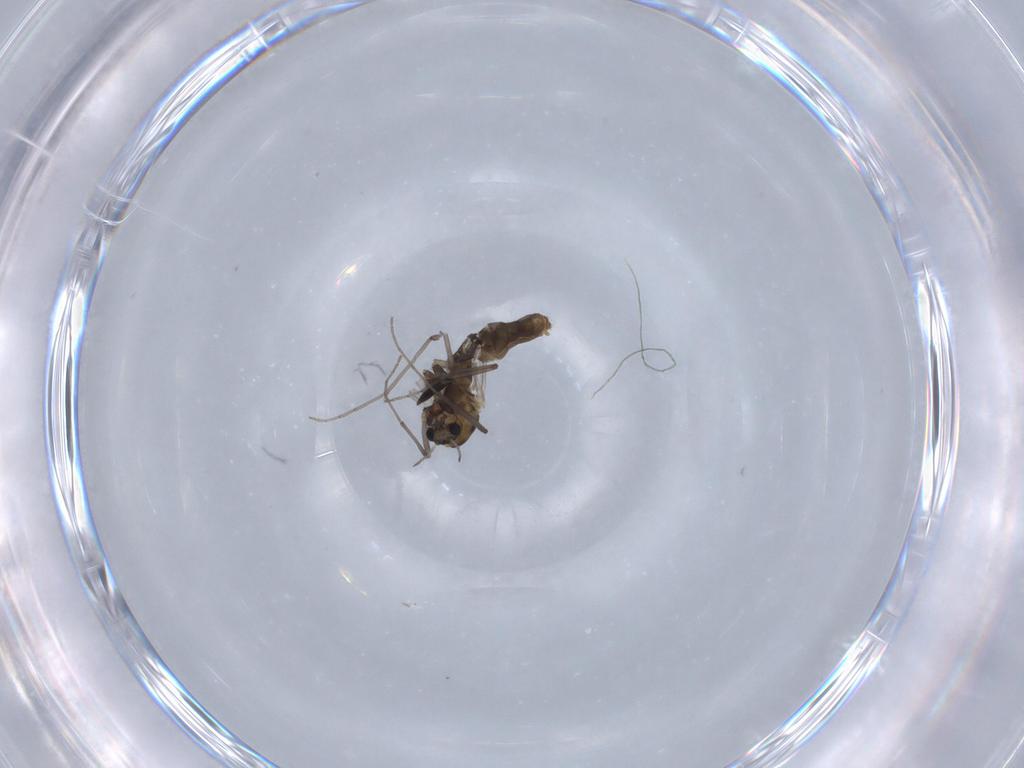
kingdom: Animalia
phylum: Arthropoda
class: Insecta
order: Diptera
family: Chironomidae
